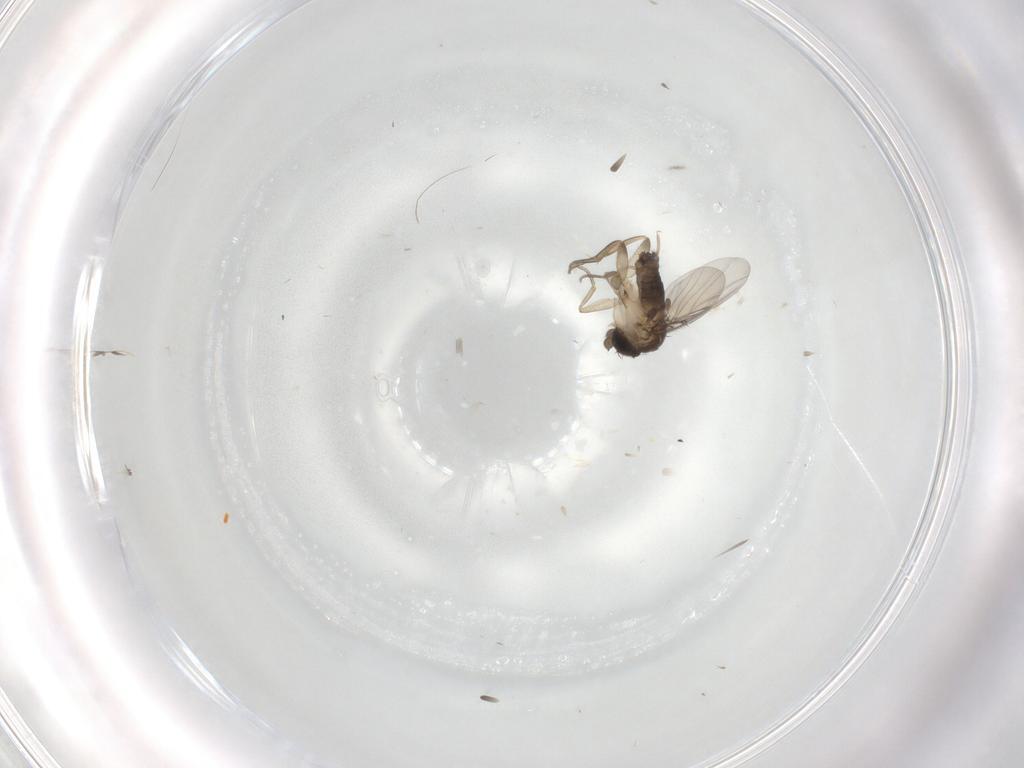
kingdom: Animalia
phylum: Arthropoda
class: Insecta
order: Diptera
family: Phoridae
